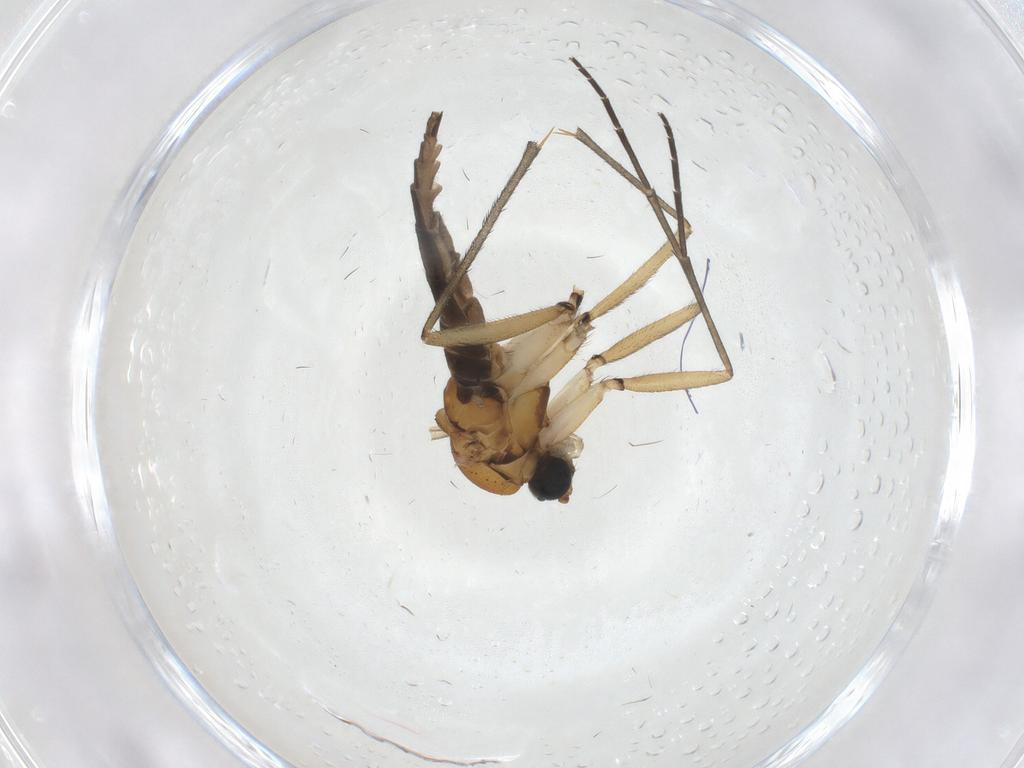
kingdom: Animalia
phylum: Arthropoda
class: Insecta
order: Diptera
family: Sciaridae
